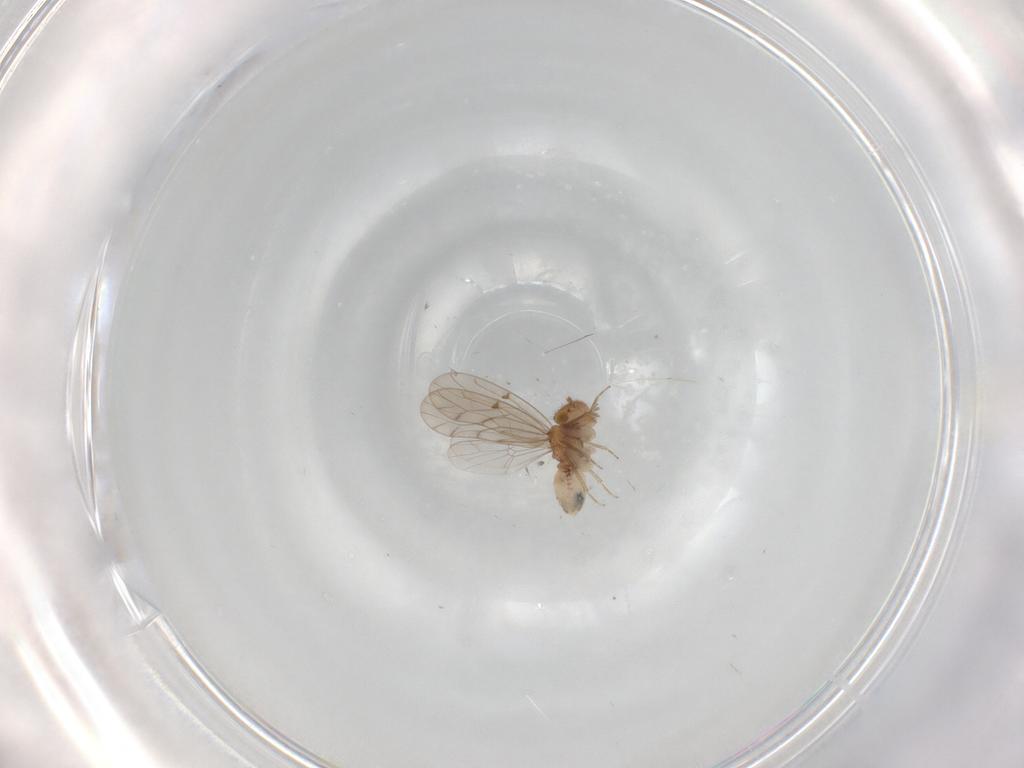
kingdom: Animalia
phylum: Arthropoda
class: Insecta
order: Psocodea
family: Ectopsocidae
